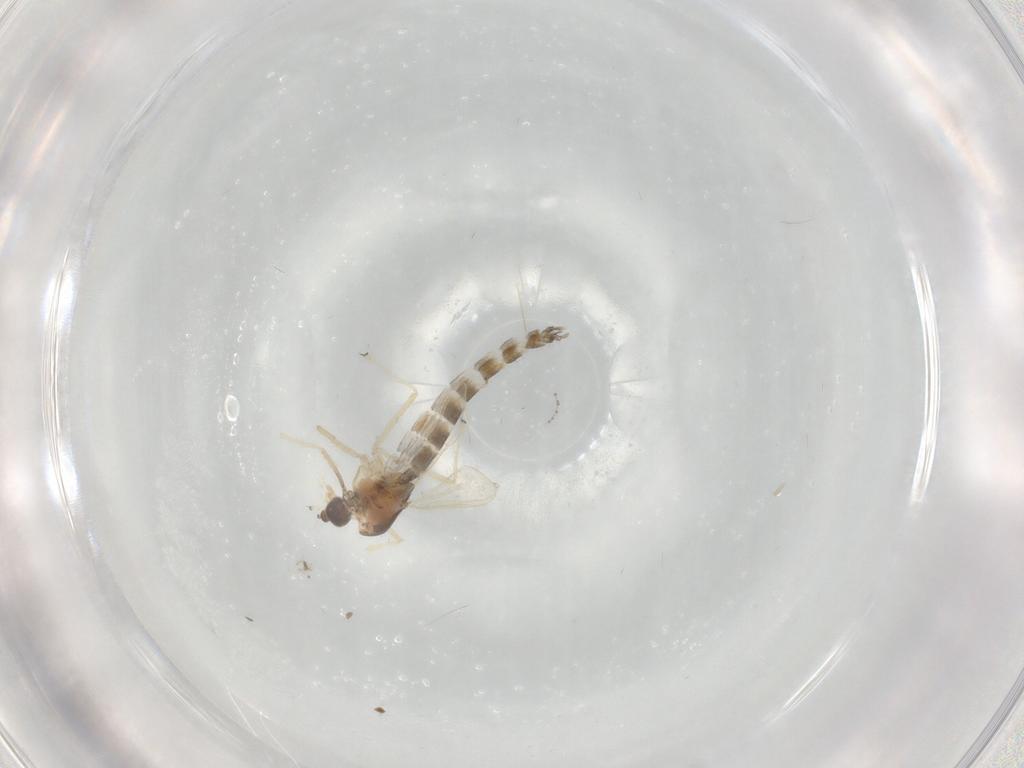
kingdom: Animalia
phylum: Arthropoda
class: Insecta
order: Diptera
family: Chironomidae
